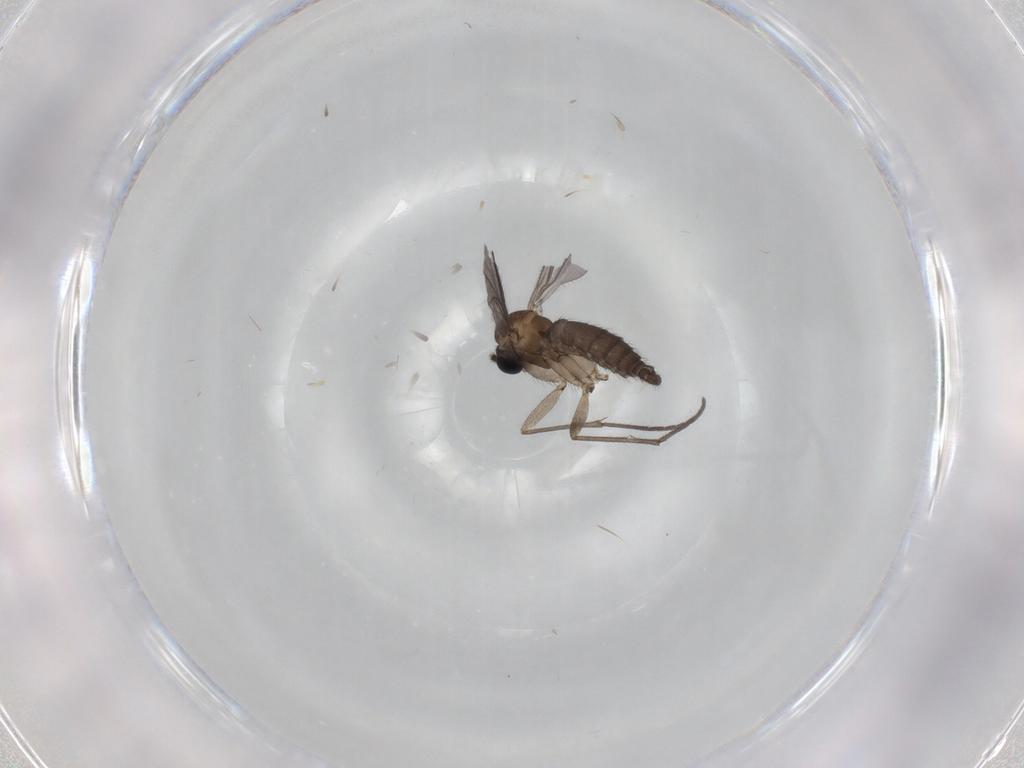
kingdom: Animalia
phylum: Arthropoda
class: Insecta
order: Diptera
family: Sciaridae
